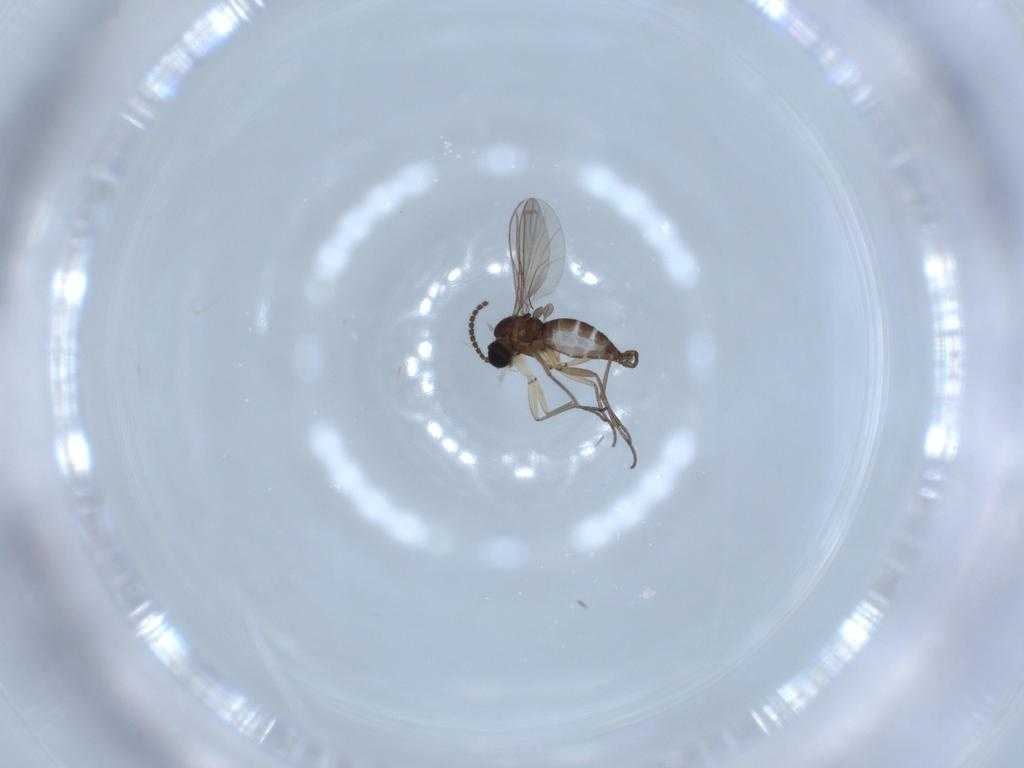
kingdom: Animalia
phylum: Arthropoda
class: Insecta
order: Diptera
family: Sciaridae
